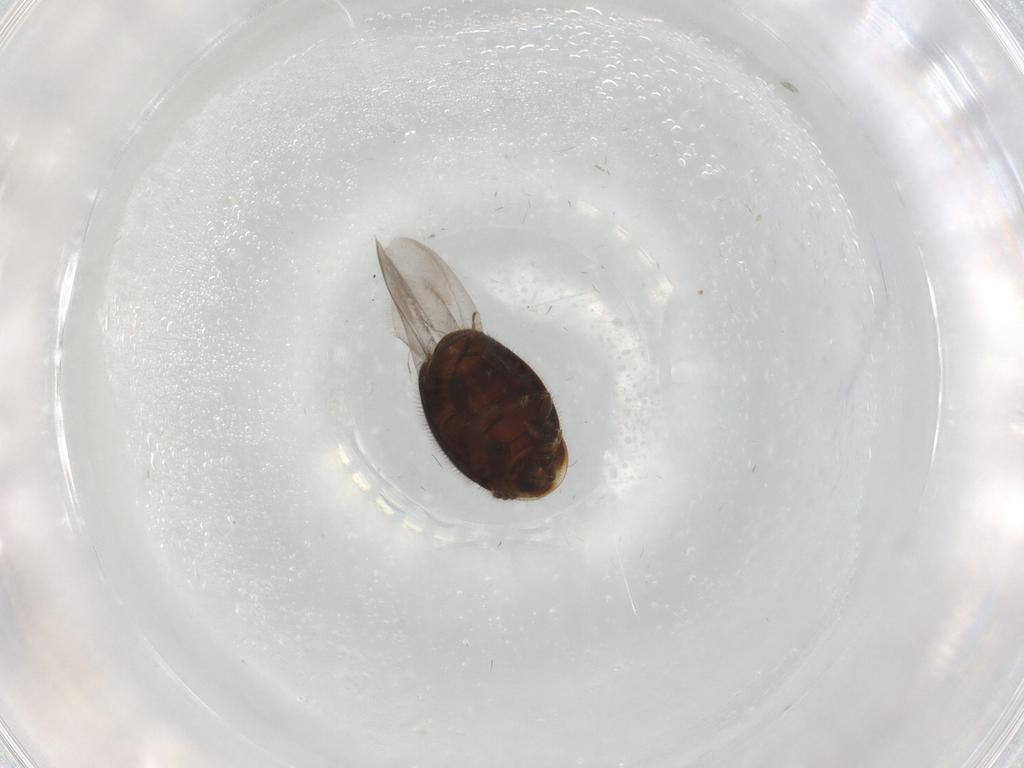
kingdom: Animalia
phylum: Arthropoda
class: Insecta
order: Coleoptera
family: Corylophidae
